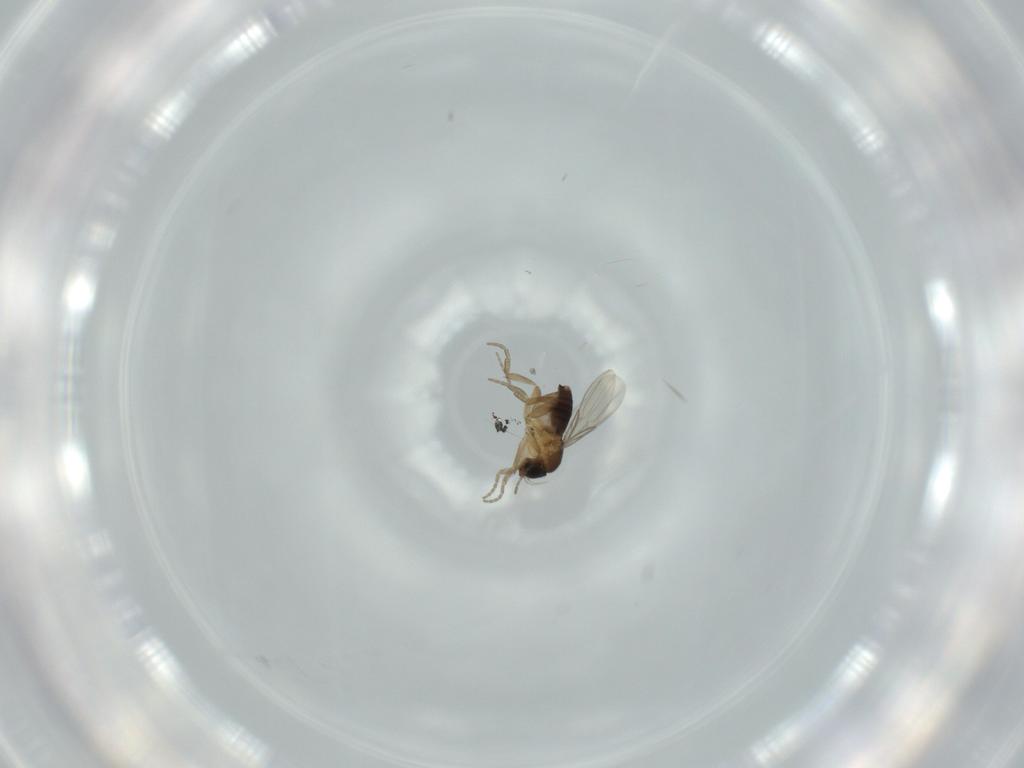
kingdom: Animalia
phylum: Arthropoda
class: Insecta
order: Diptera
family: Phoridae
